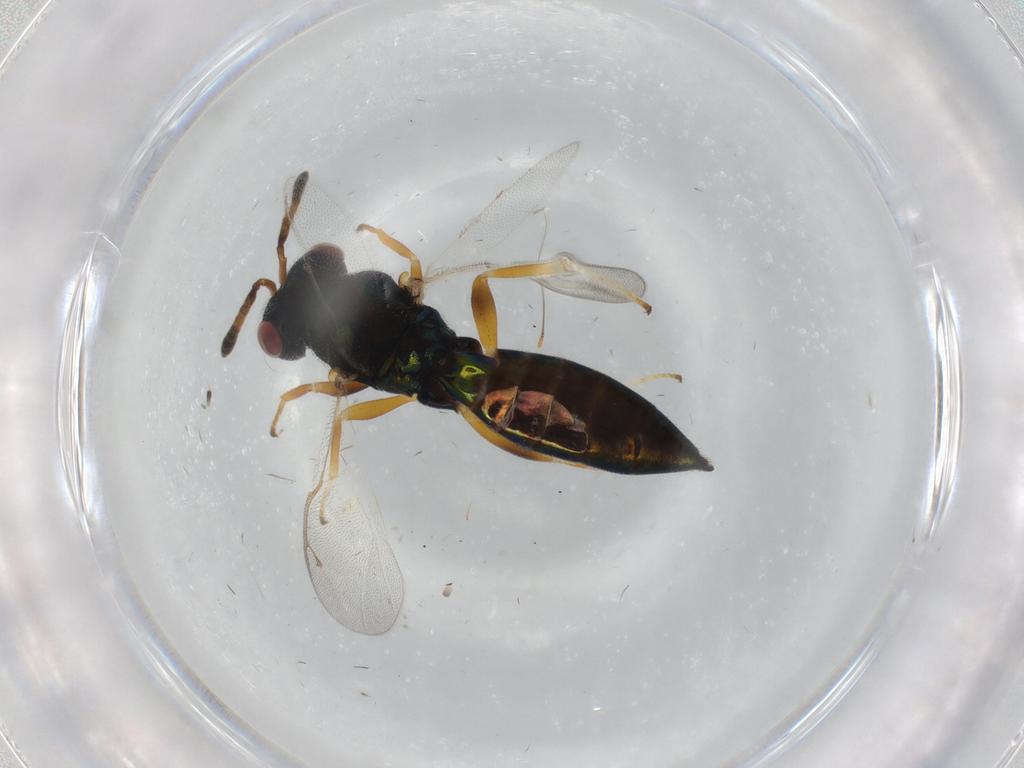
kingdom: Animalia
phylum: Arthropoda
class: Insecta
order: Hymenoptera
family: Pteromalidae
